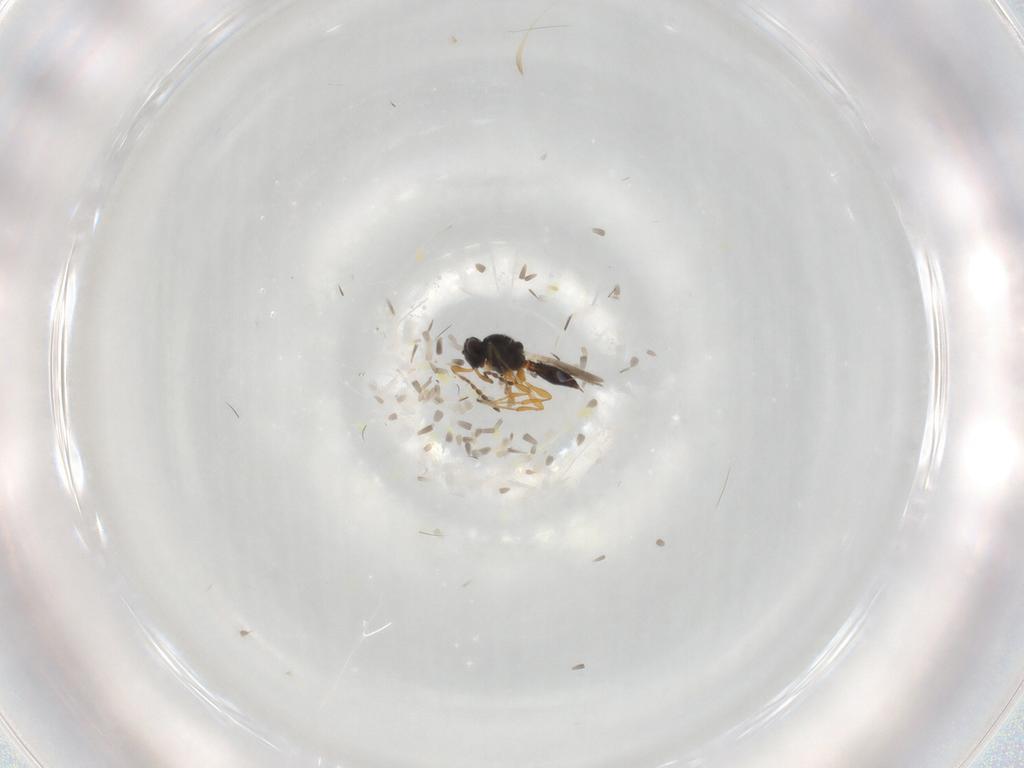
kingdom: Animalia
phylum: Arthropoda
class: Insecta
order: Hymenoptera
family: Platygastridae
